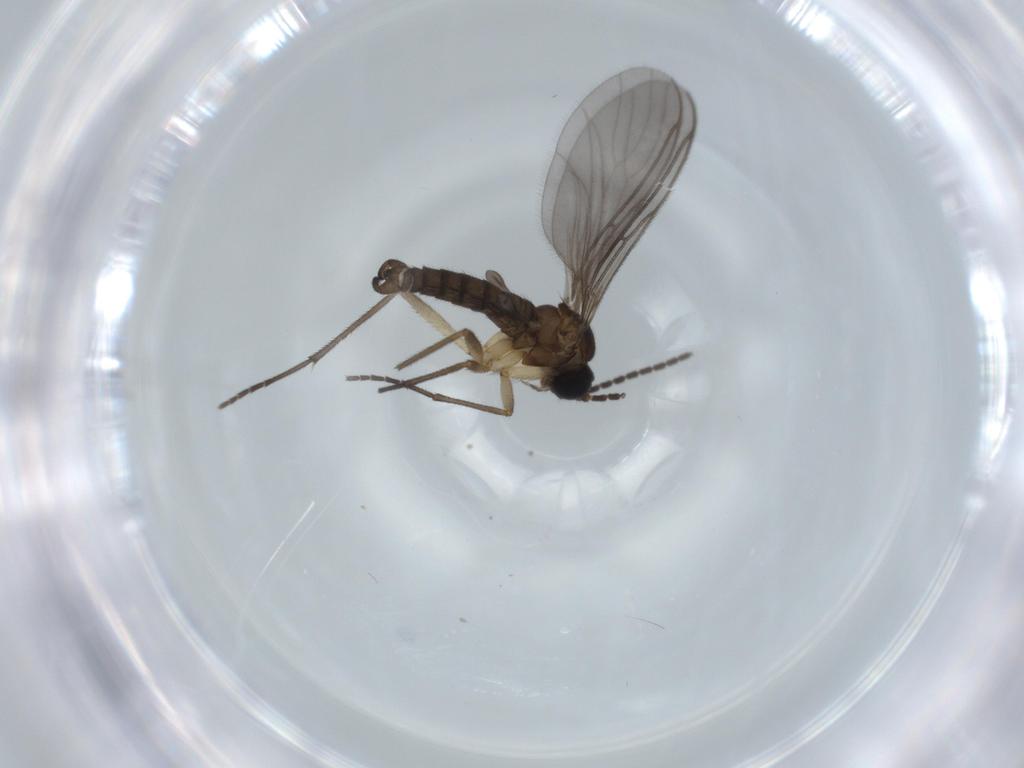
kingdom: Animalia
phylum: Arthropoda
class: Insecta
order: Diptera
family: Sciaridae
